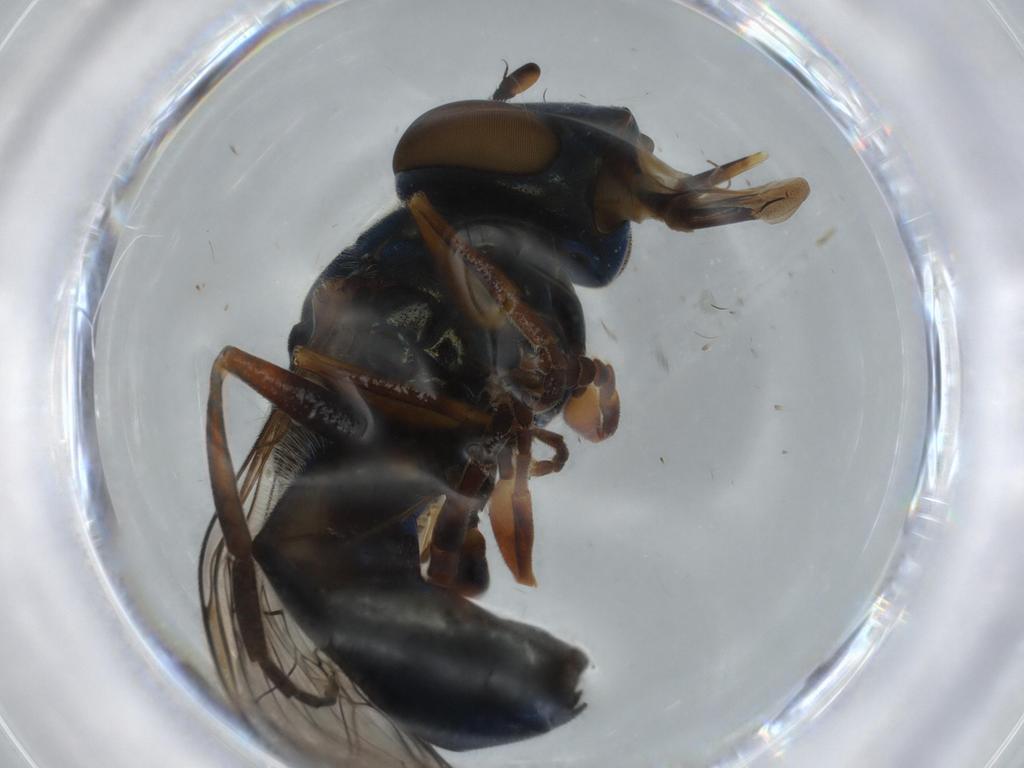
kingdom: Animalia
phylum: Arthropoda
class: Insecta
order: Diptera
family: Syrphidae
